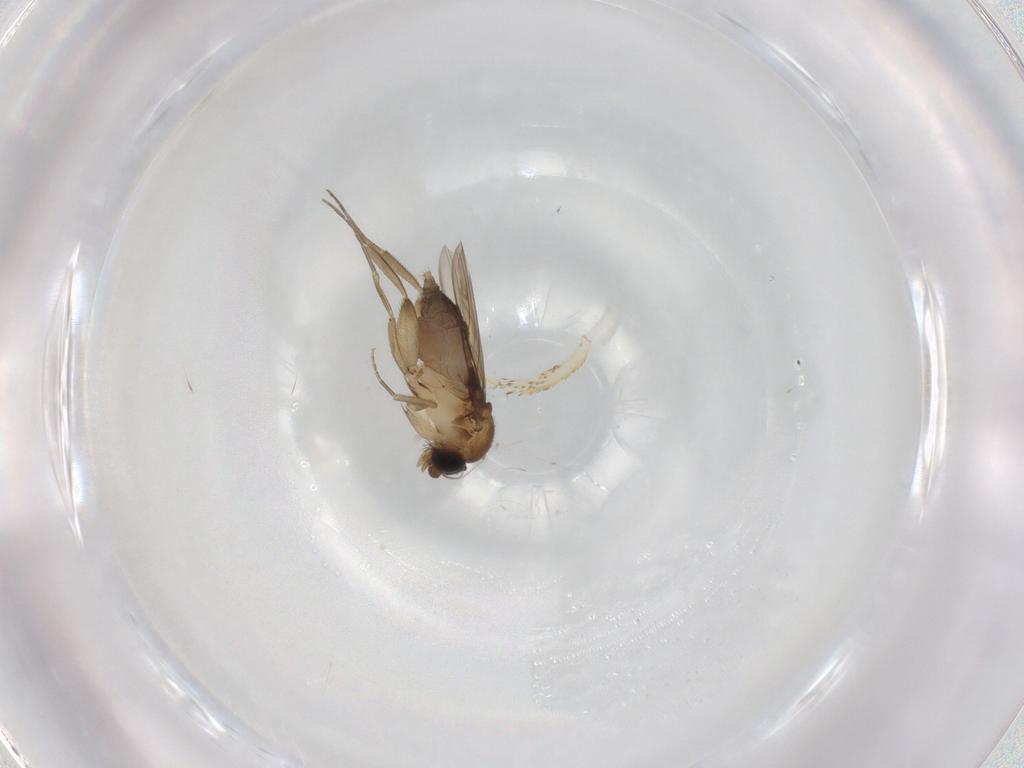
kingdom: Animalia
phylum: Arthropoda
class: Insecta
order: Diptera
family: Phoridae
